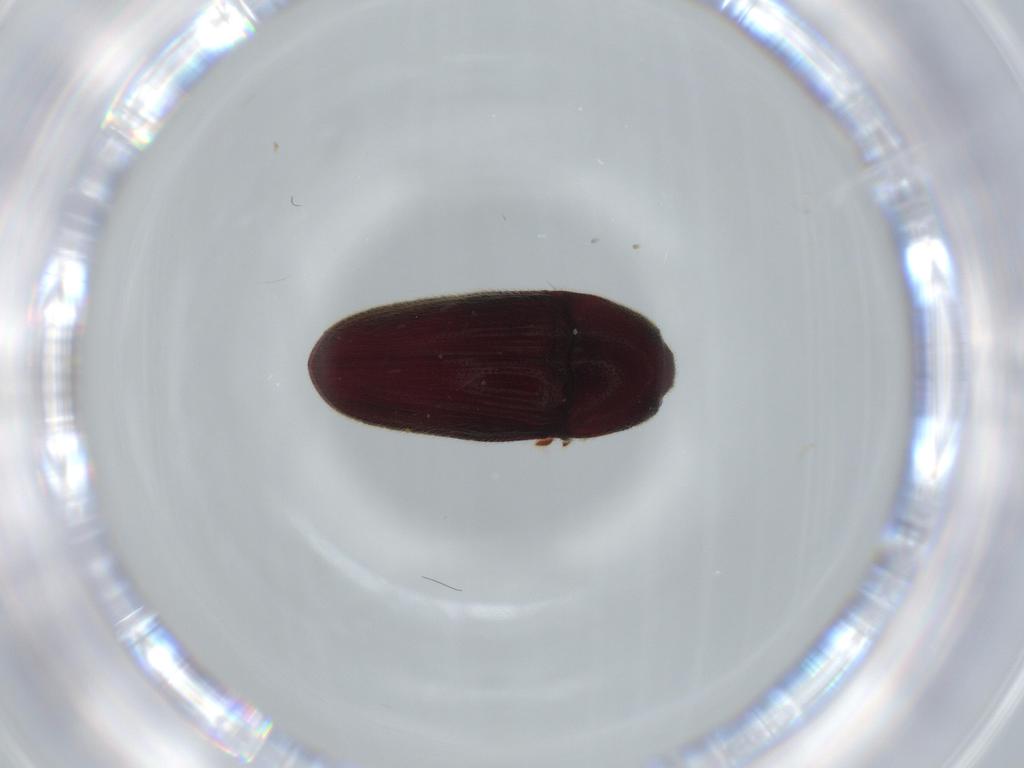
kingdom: Animalia
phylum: Arthropoda
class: Insecta
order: Coleoptera
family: Throscidae
